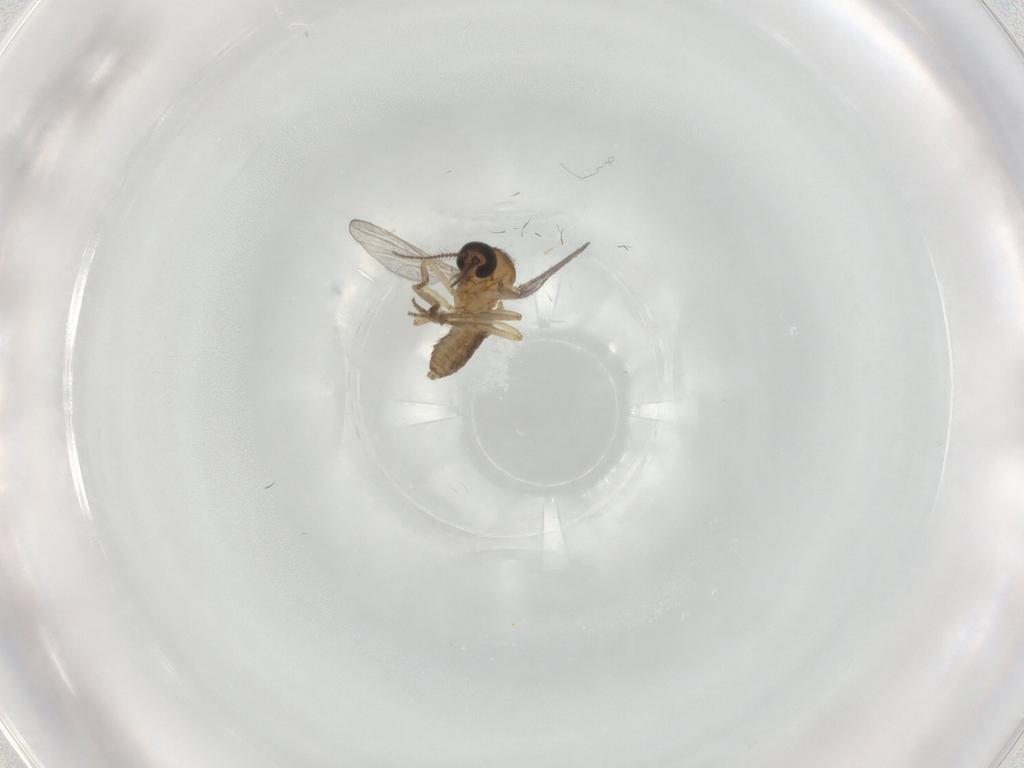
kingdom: Animalia
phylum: Arthropoda
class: Insecta
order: Diptera
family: Ceratopogonidae
